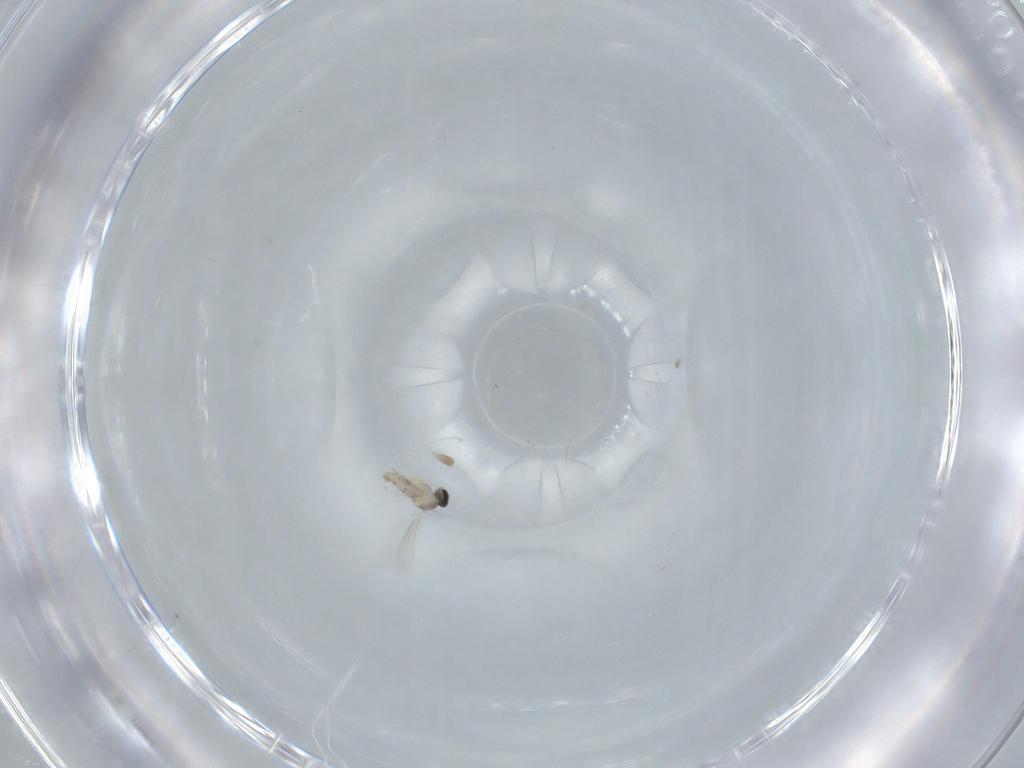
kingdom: Animalia
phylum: Arthropoda
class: Insecta
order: Diptera
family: Cecidomyiidae
